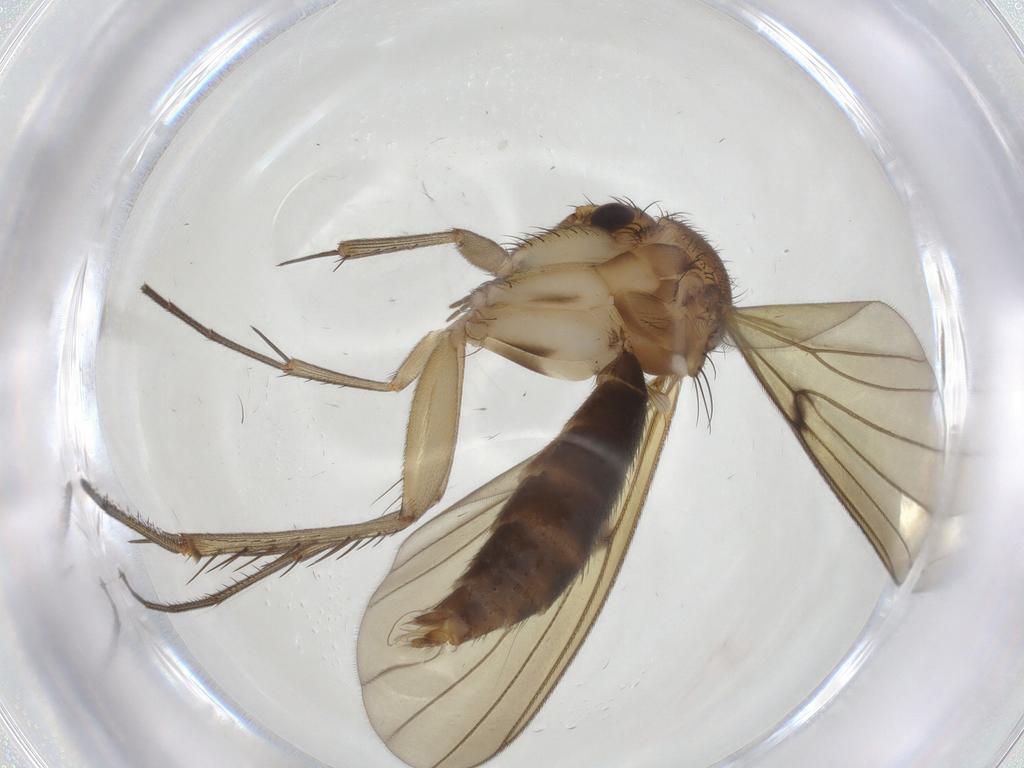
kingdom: Animalia
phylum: Arthropoda
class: Insecta
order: Diptera
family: Mycetophilidae
